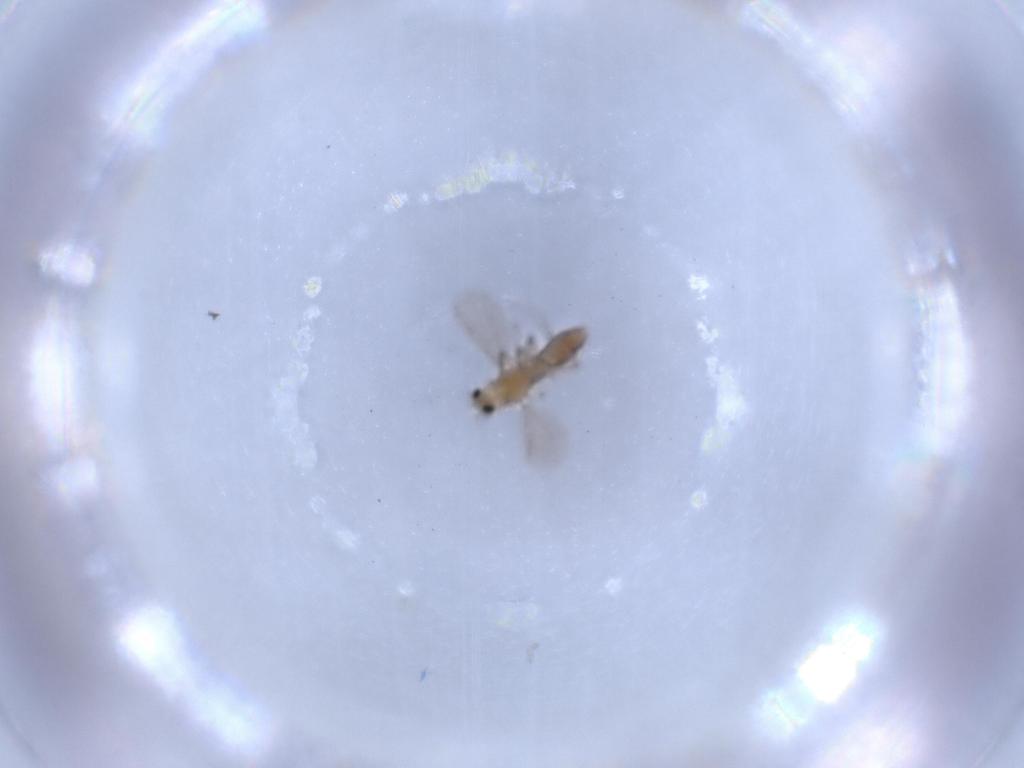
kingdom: Animalia
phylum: Arthropoda
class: Insecta
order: Diptera
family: Chironomidae
